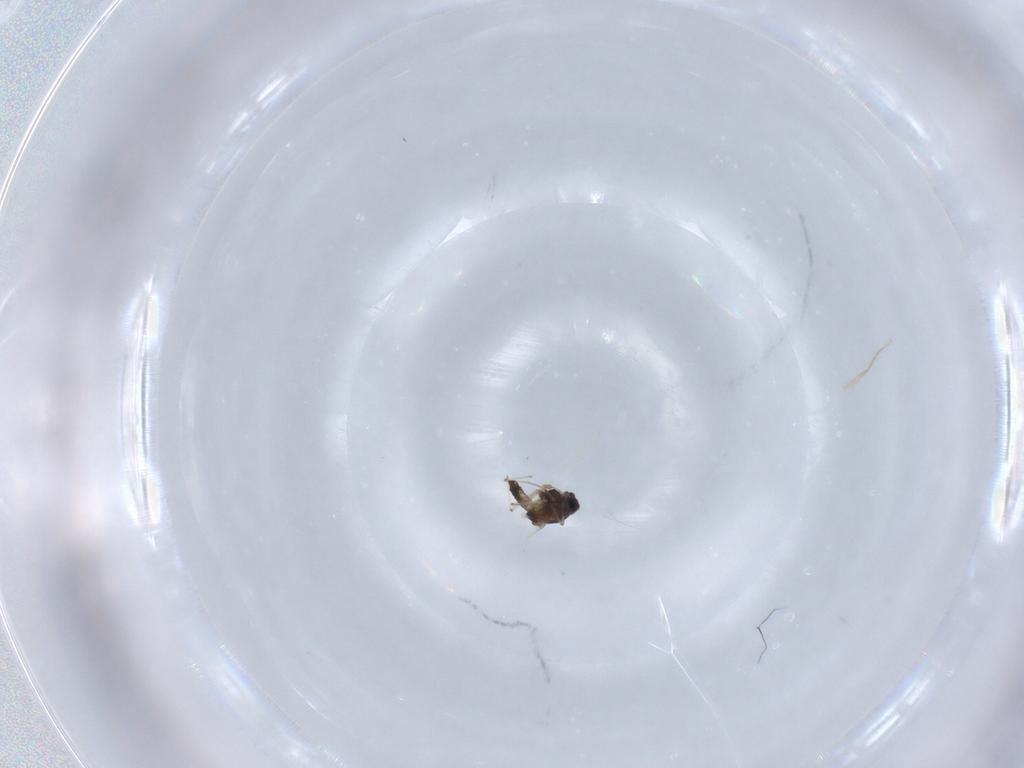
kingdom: Animalia
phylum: Arthropoda
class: Insecta
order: Diptera
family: Chironomidae
